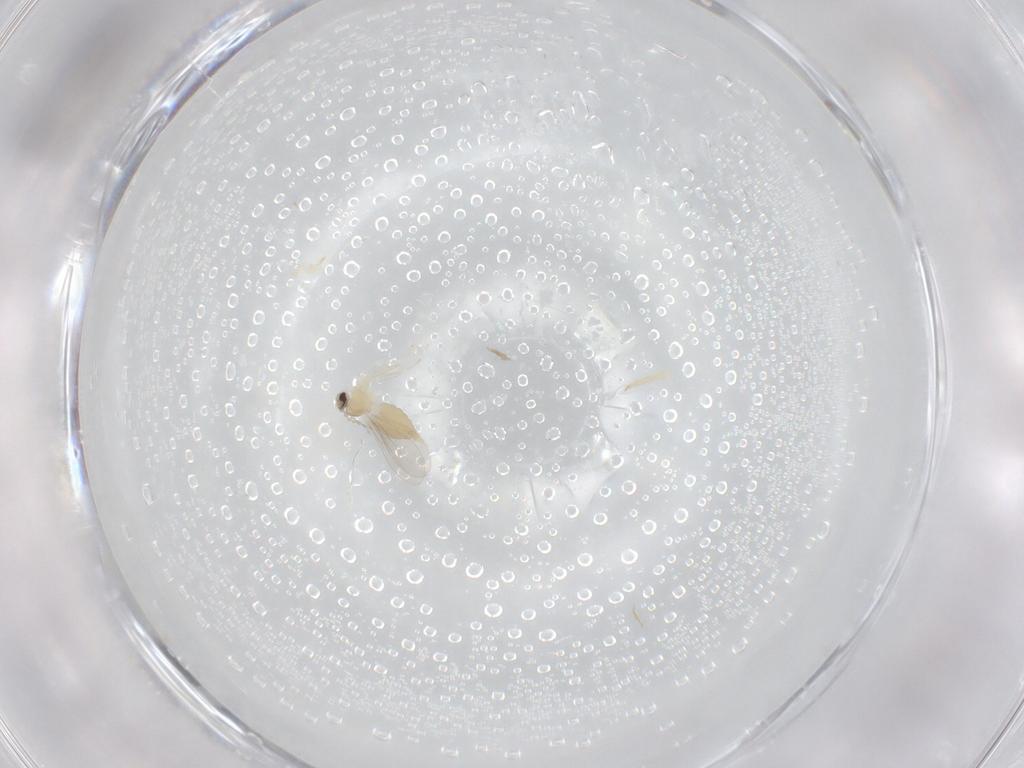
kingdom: Animalia
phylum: Arthropoda
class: Insecta
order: Diptera
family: Cecidomyiidae
